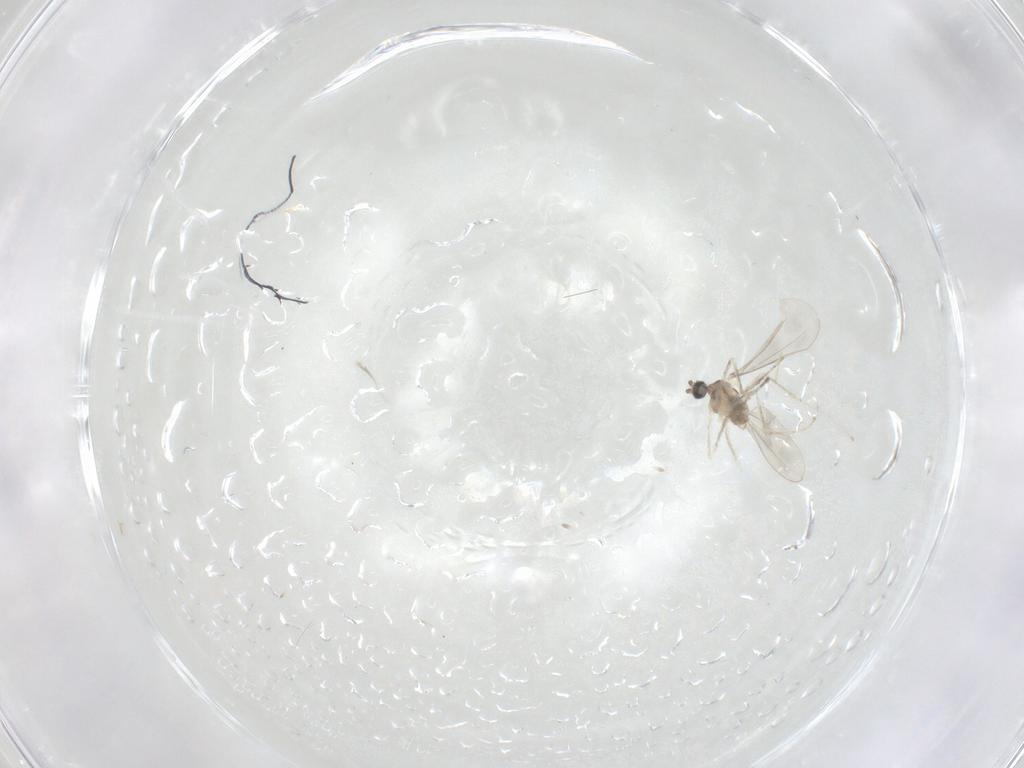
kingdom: Animalia
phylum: Arthropoda
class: Insecta
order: Diptera
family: Cecidomyiidae
